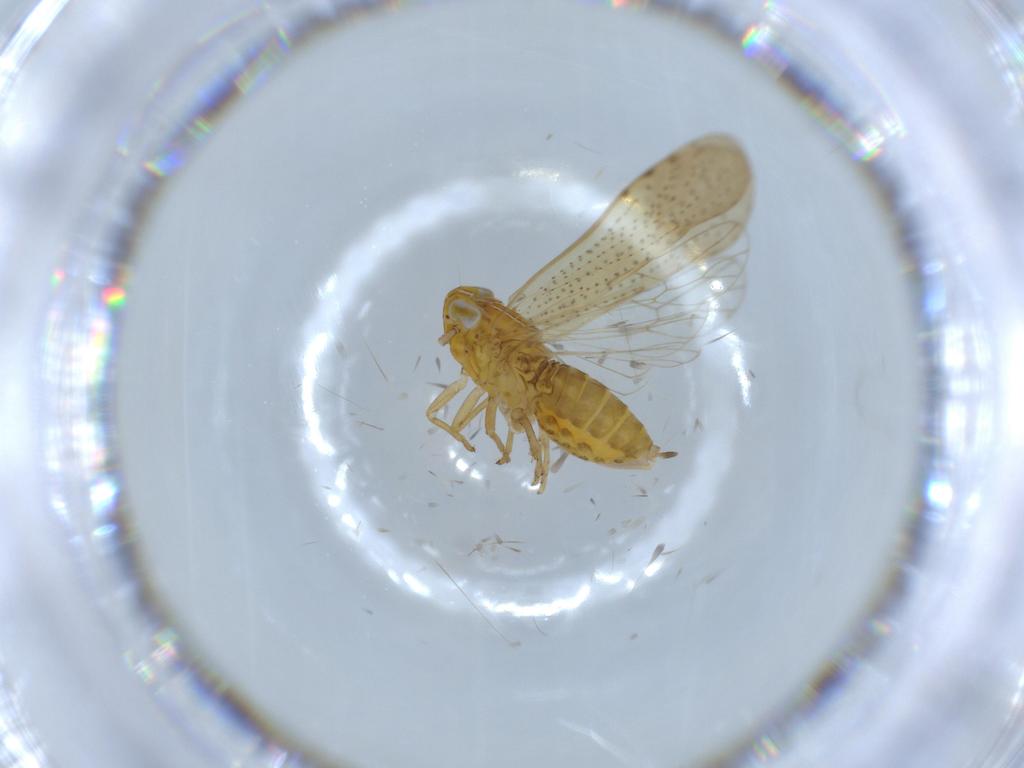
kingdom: Animalia
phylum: Arthropoda
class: Insecta
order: Hemiptera
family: Delphacidae
